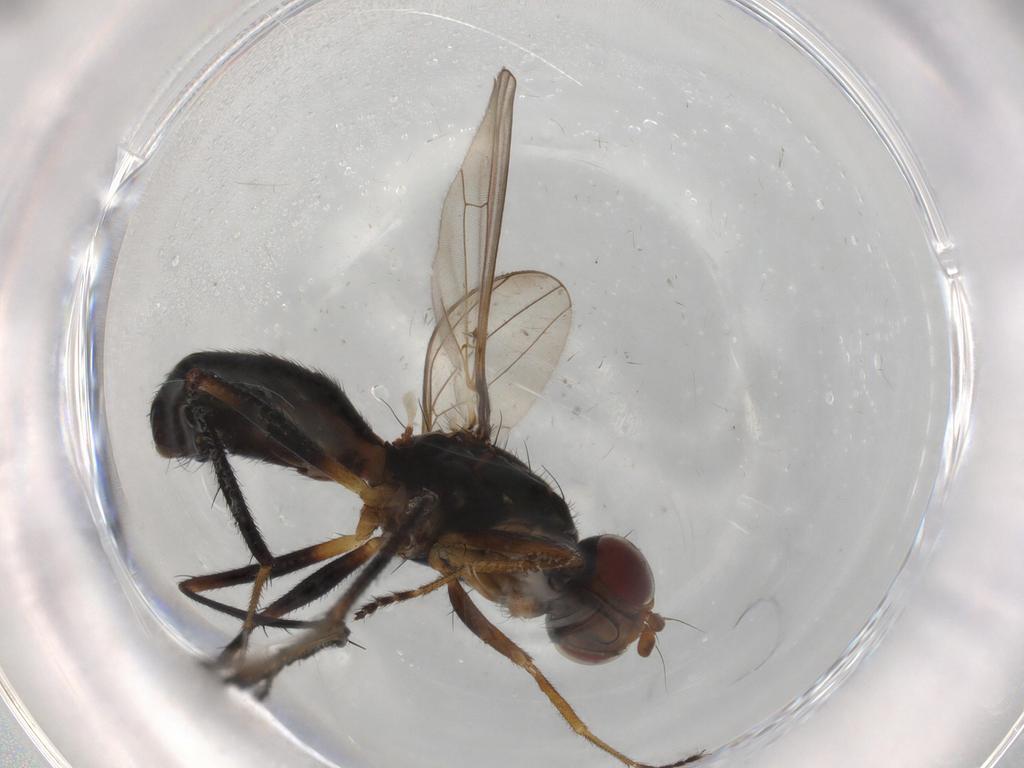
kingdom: Animalia
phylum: Arthropoda
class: Insecta
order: Diptera
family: Sepsidae
